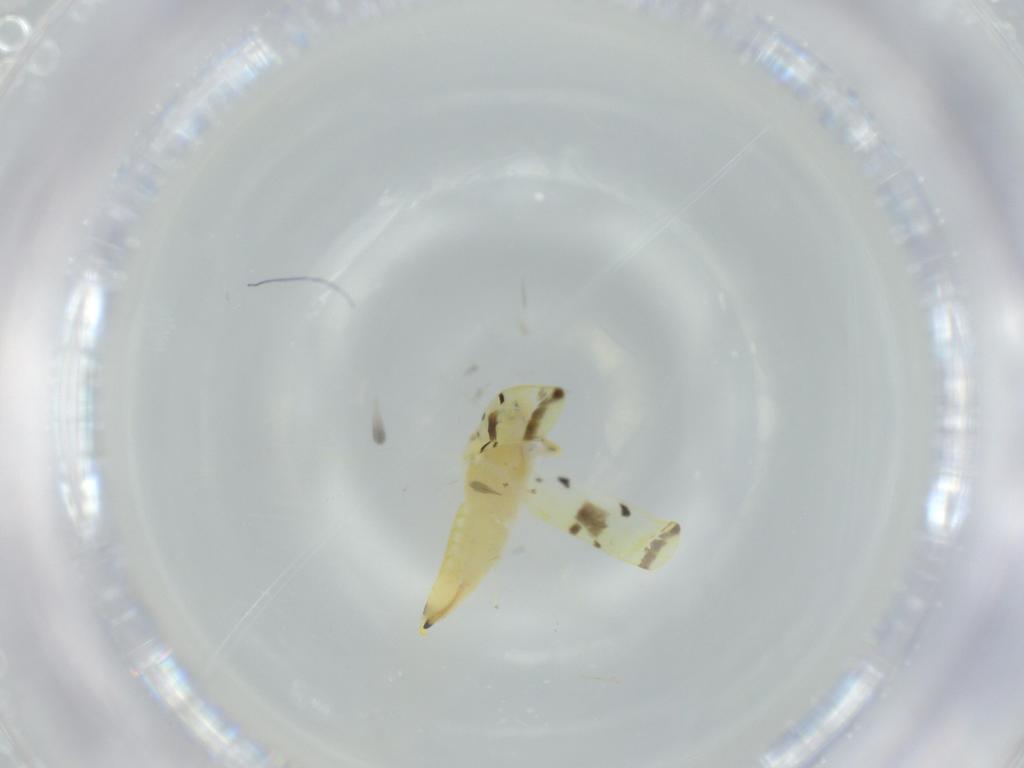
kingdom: Animalia
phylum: Arthropoda
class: Insecta
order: Hemiptera
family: Cicadellidae
